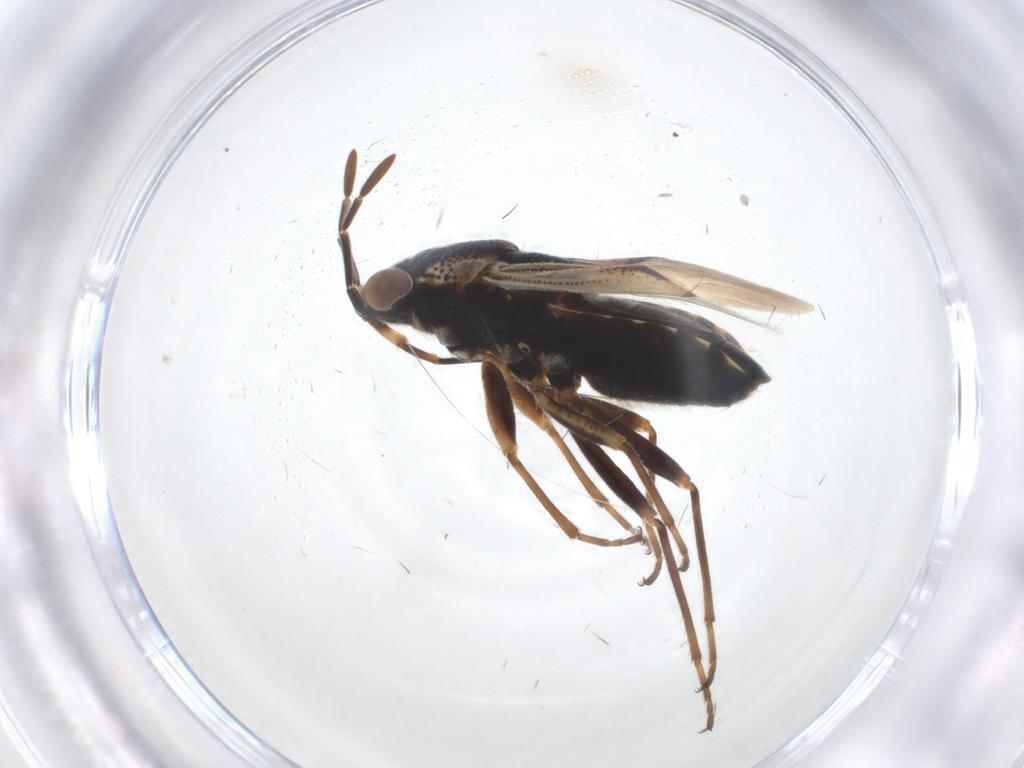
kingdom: Animalia
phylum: Arthropoda
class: Insecta
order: Hemiptera
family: Geocoridae
